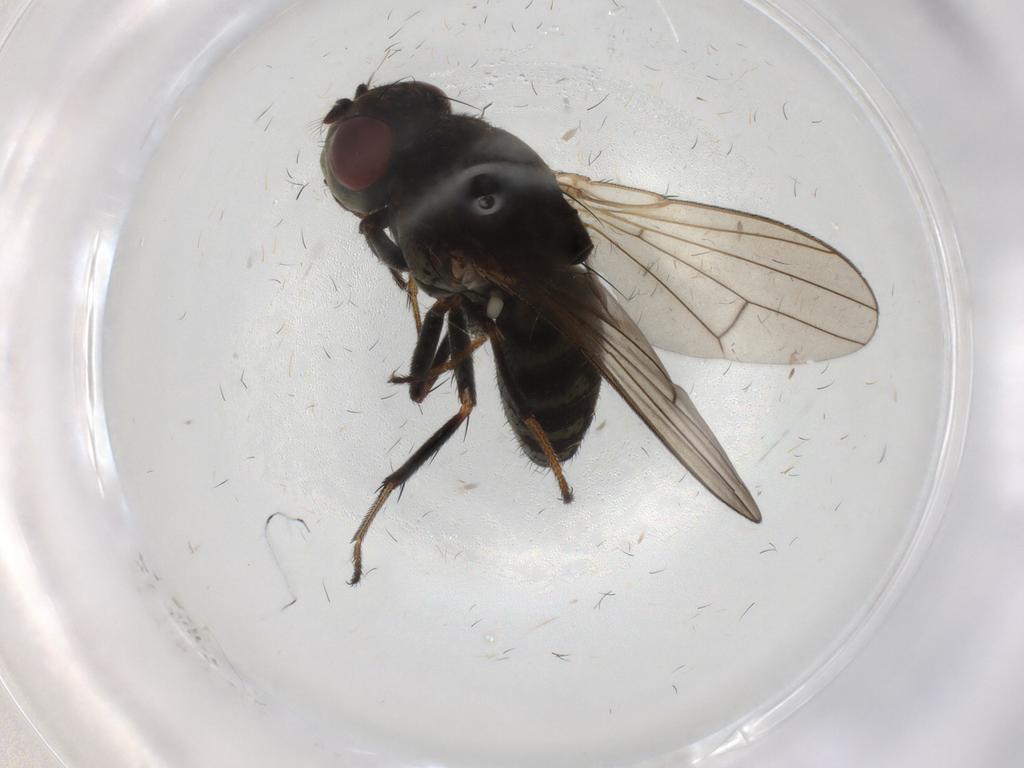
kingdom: Animalia
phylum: Arthropoda
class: Insecta
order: Diptera
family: Ephydridae
